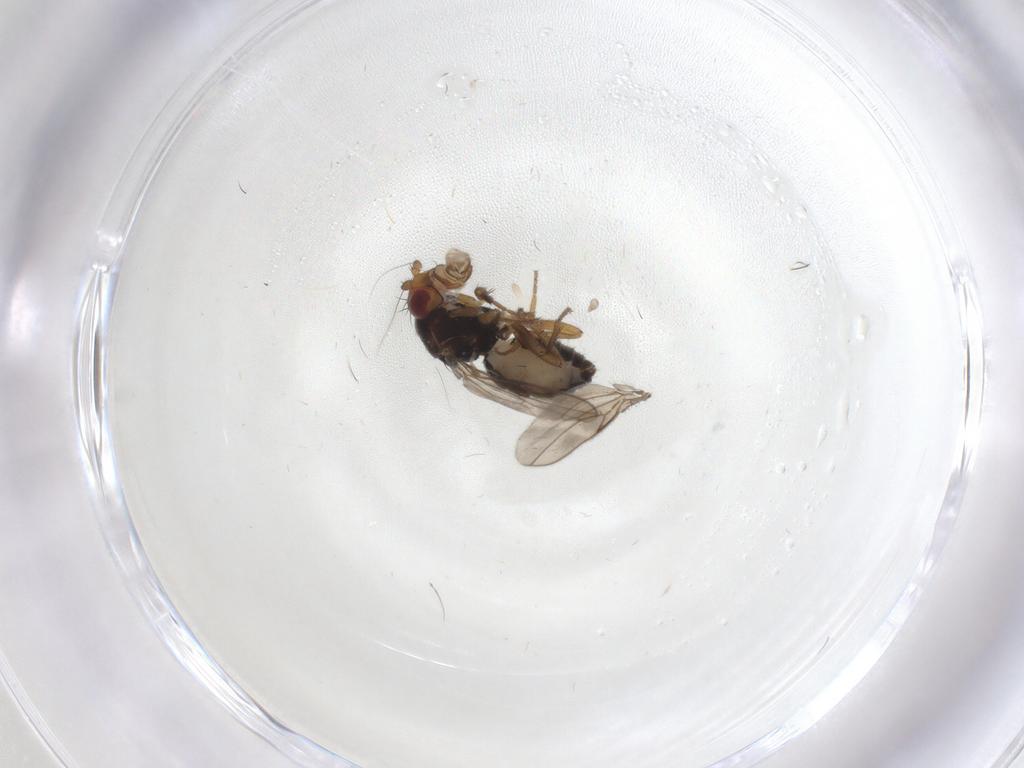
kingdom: Animalia
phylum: Arthropoda
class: Insecta
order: Diptera
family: Sphaeroceridae
